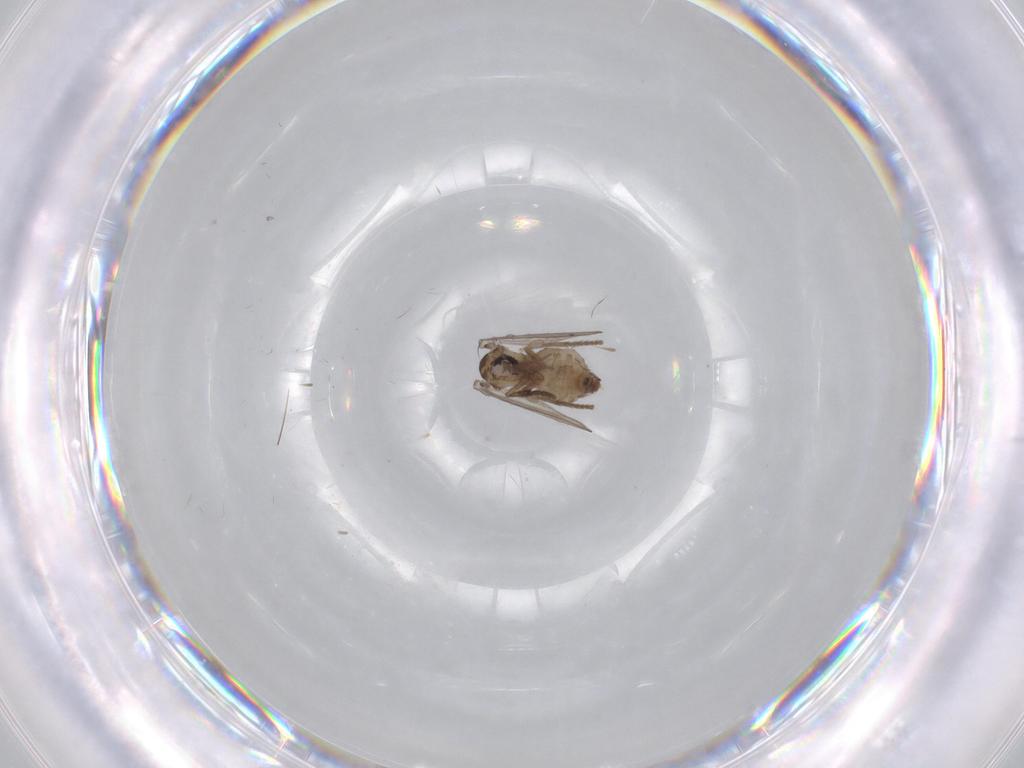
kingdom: Animalia
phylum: Arthropoda
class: Insecta
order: Diptera
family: Psychodidae
